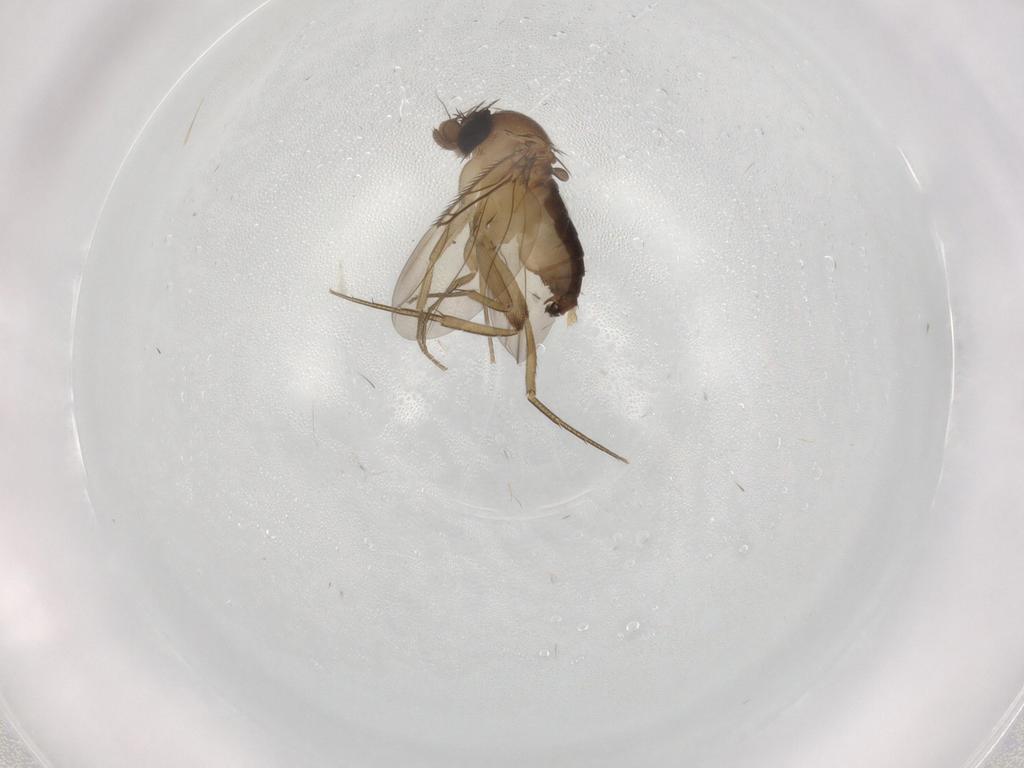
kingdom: Animalia
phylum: Arthropoda
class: Insecta
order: Diptera
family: Phoridae
